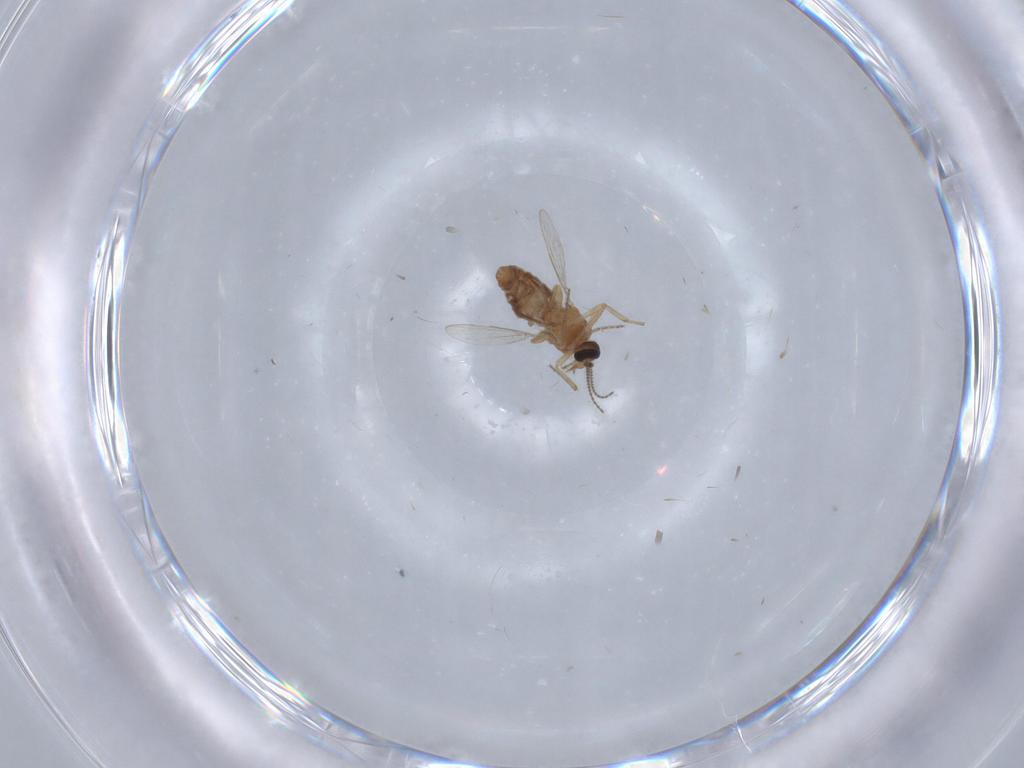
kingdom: Animalia
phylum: Arthropoda
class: Insecta
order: Diptera
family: Ceratopogonidae
